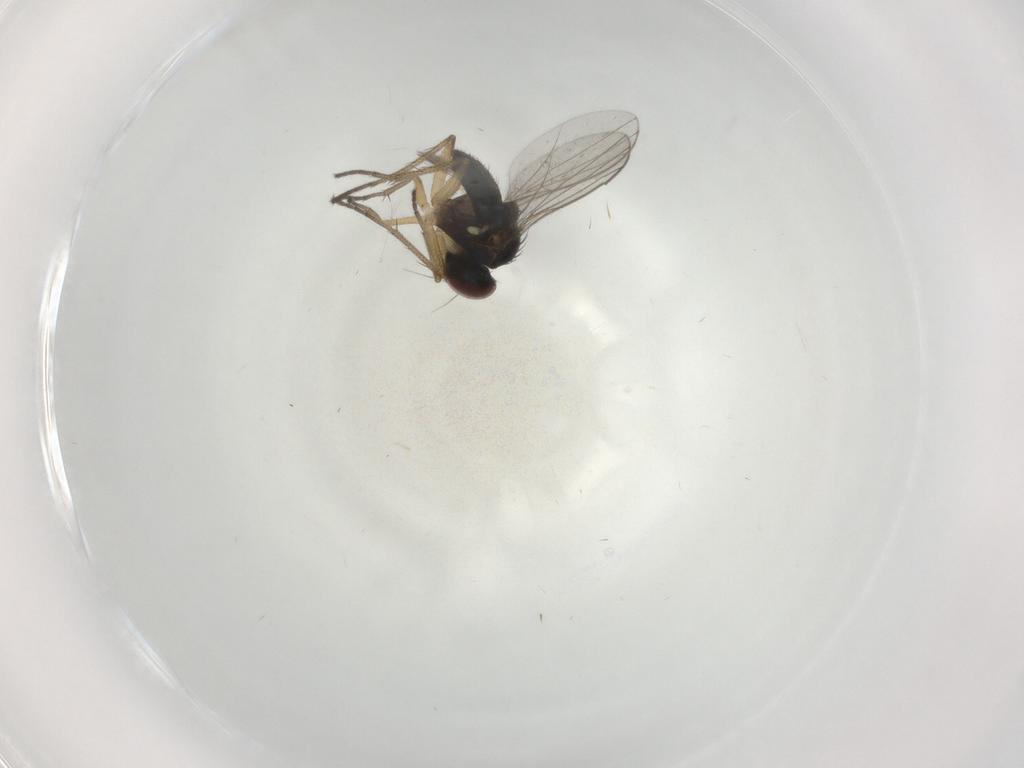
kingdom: Animalia
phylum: Arthropoda
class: Insecta
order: Diptera
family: Ceratopogonidae
